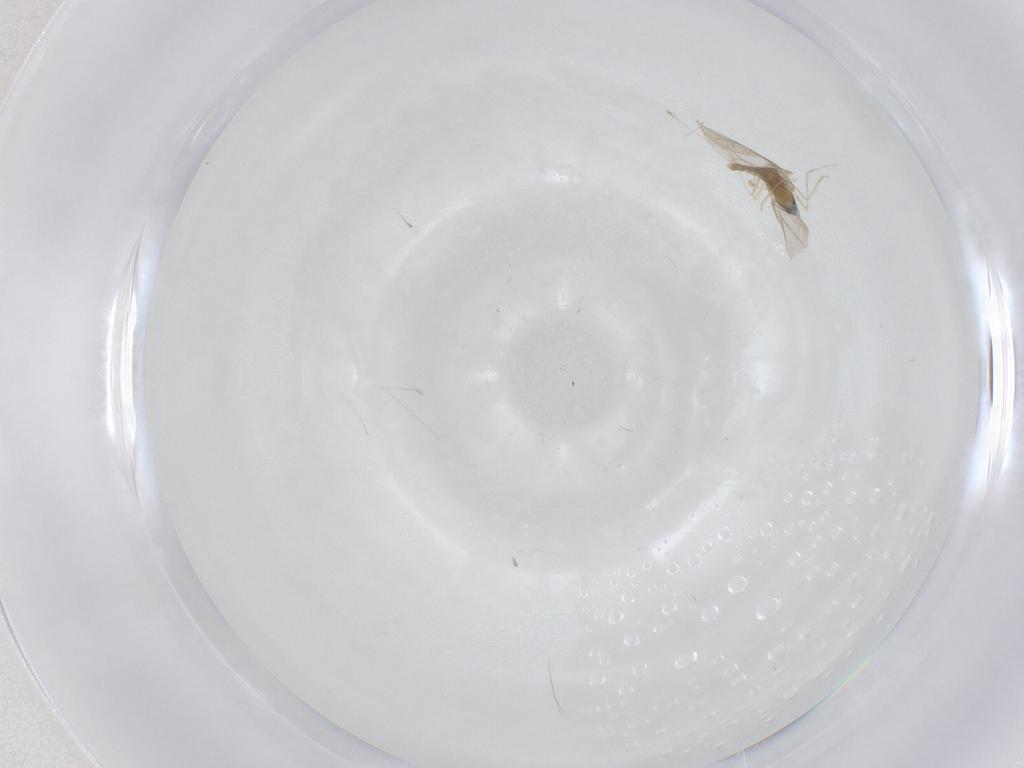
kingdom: Animalia
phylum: Arthropoda
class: Insecta
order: Diptera
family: Cecidomyiidae
